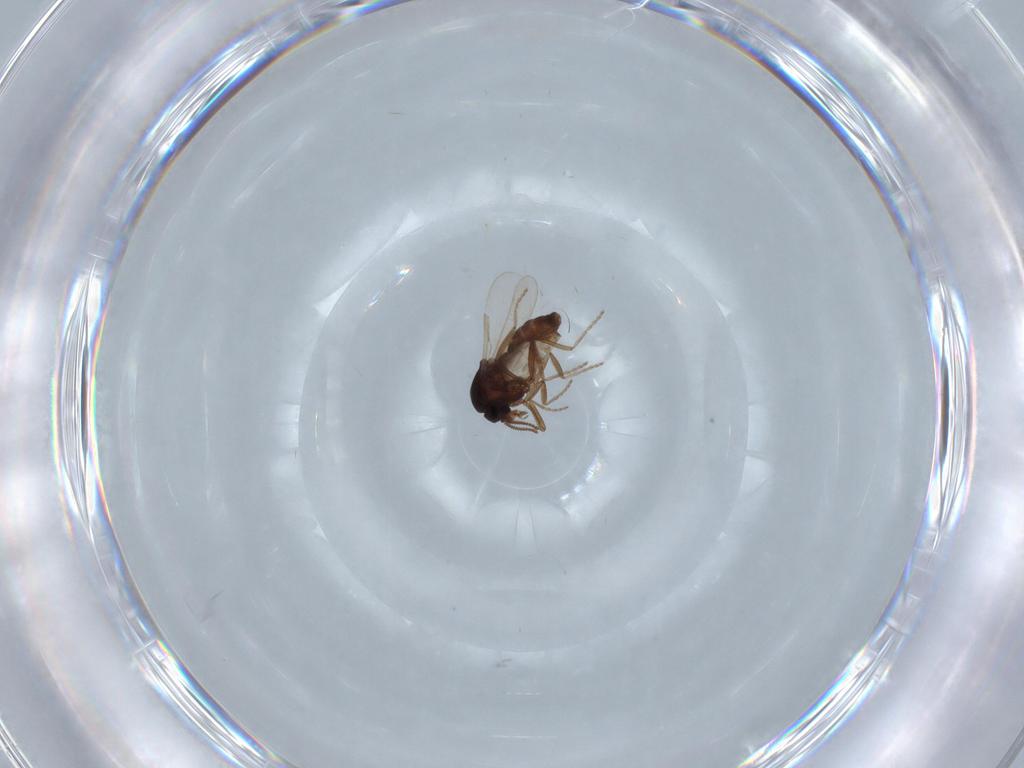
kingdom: Animalia
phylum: Arthropoda
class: Insecta
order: Diptera
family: Ceratopogonidae
